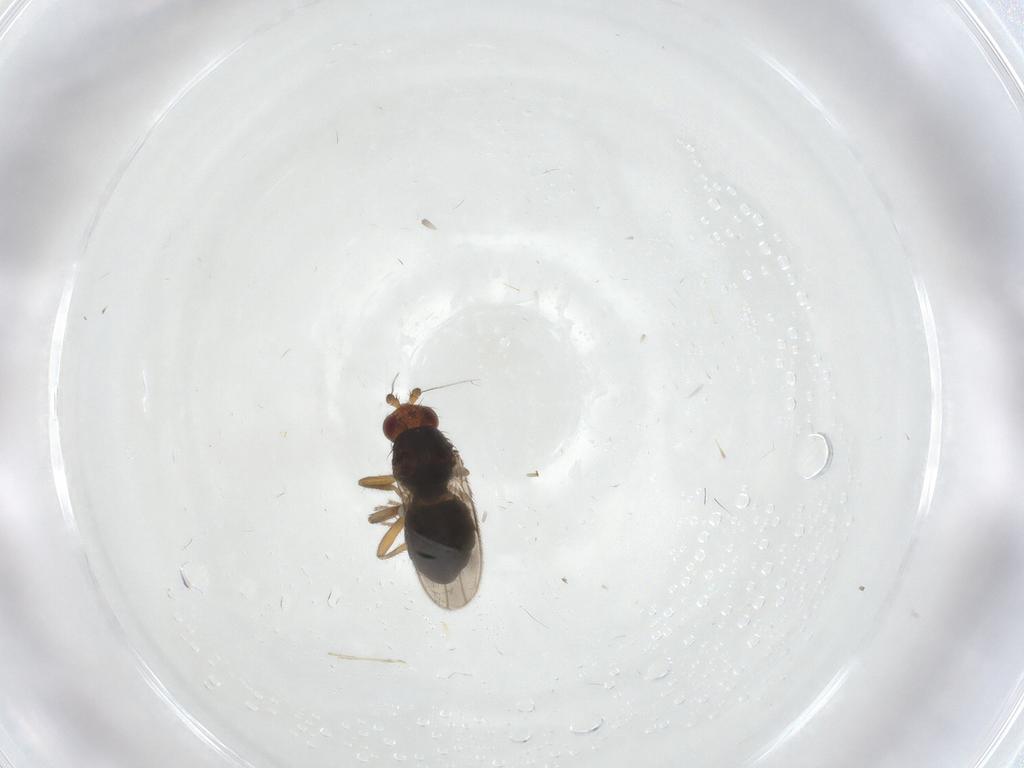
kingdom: Animalia
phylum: Arthropoda
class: Insecta
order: Diptera
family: Sphaeroceridae
